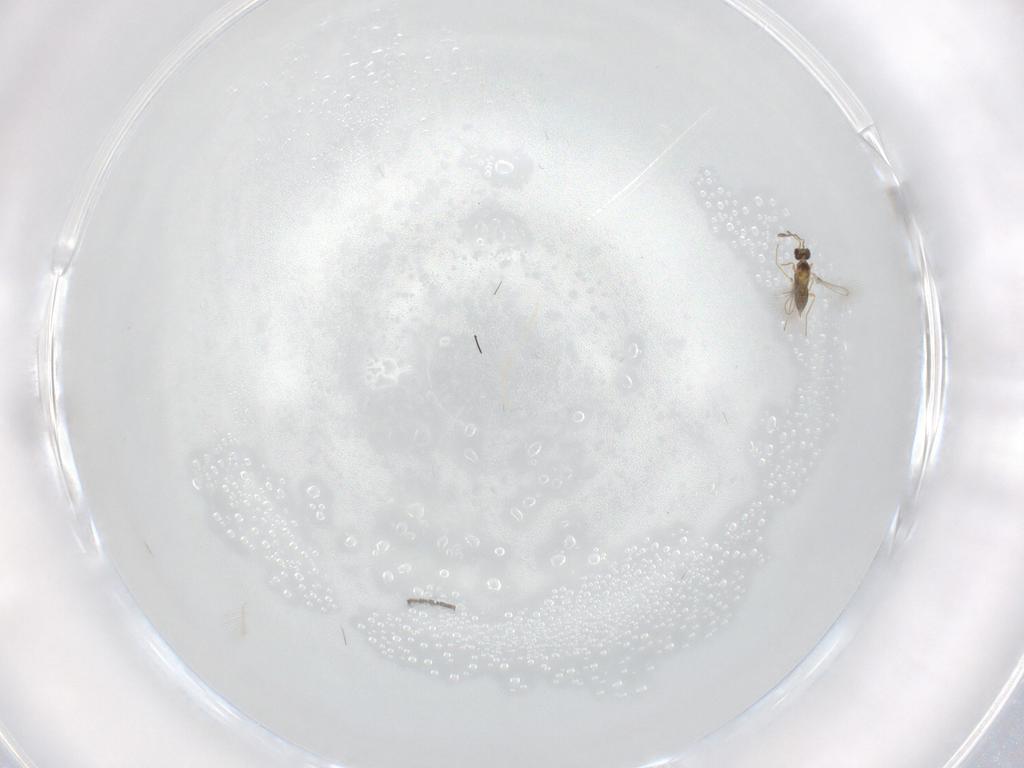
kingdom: Animalia
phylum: Arthropoda
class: Insecta
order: Hymenoptera
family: Mymaridae
